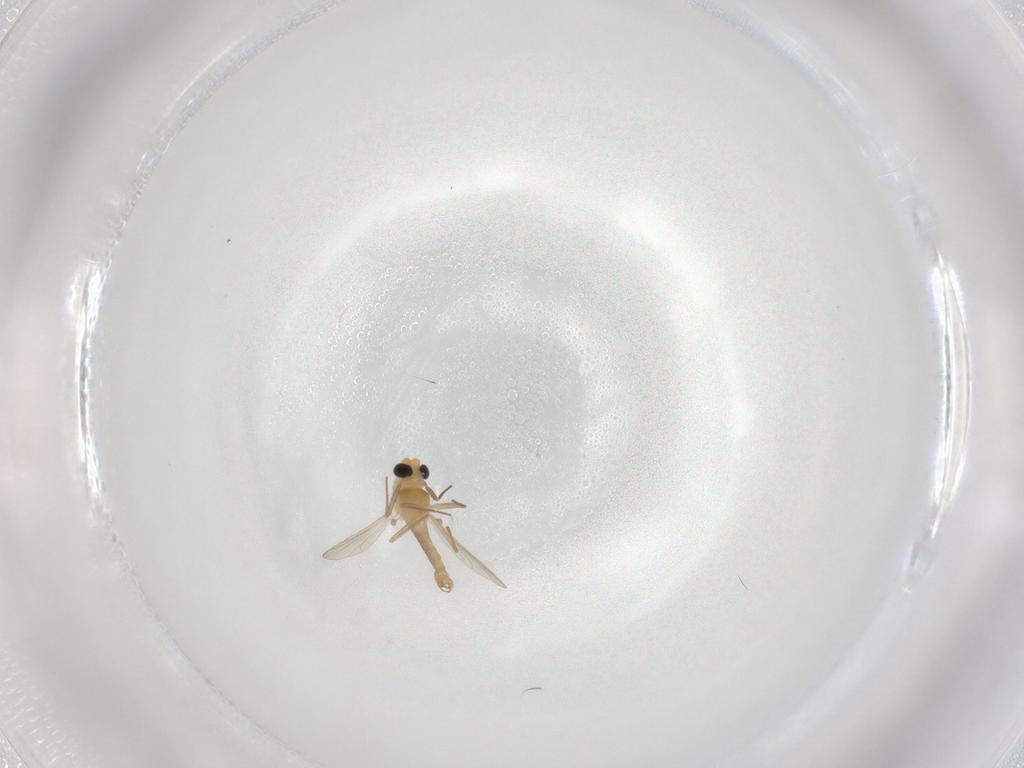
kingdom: Animalia
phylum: Arthropoda
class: Insecta
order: Diptera
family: Chironomidae
